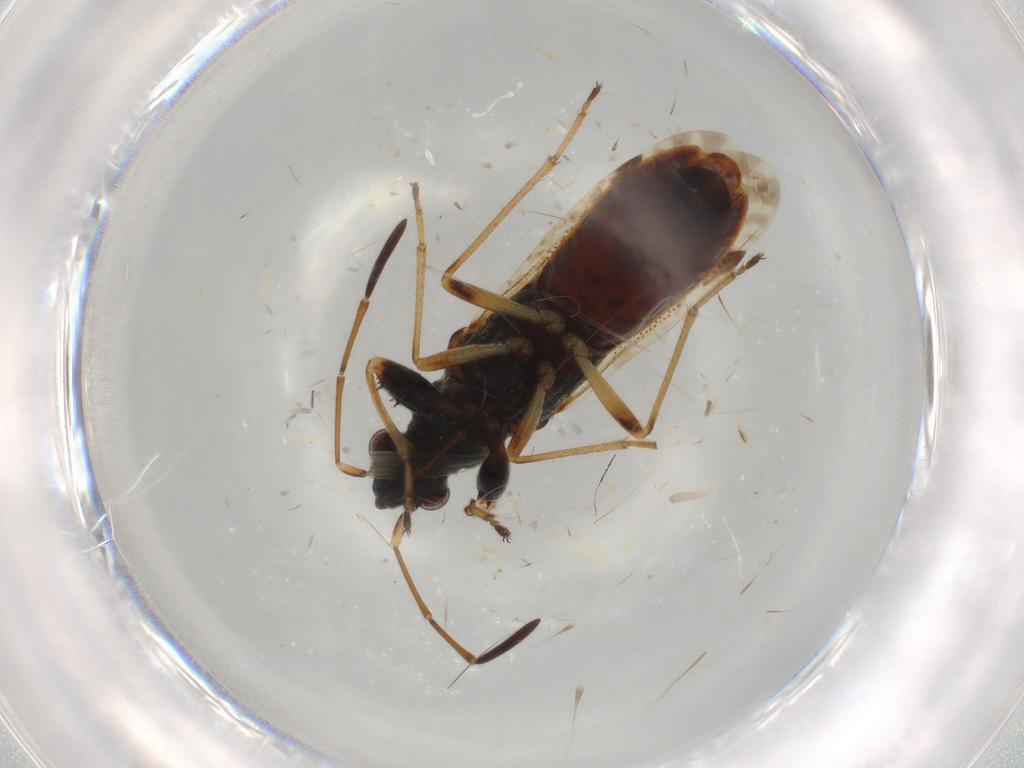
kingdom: Animalia
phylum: Arthropoda
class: Insecta
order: Hemiptera
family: Rhyparochromidae
